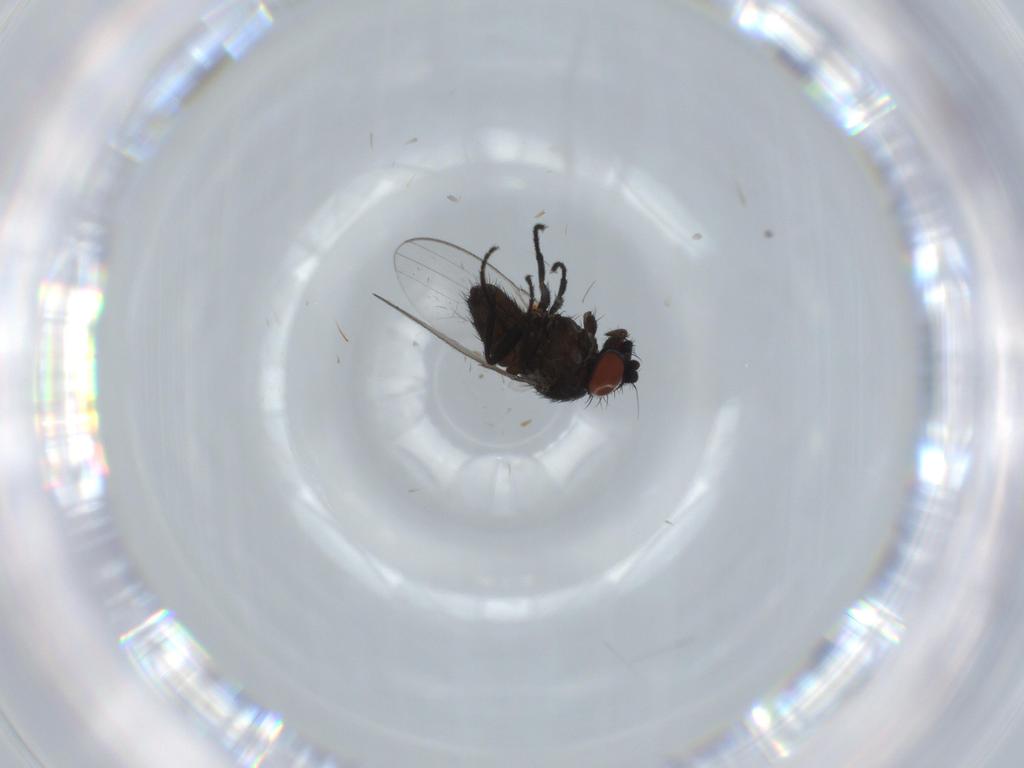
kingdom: Animalia
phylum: Arthropoda
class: Insecta
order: Diptera
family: Milichiidae
